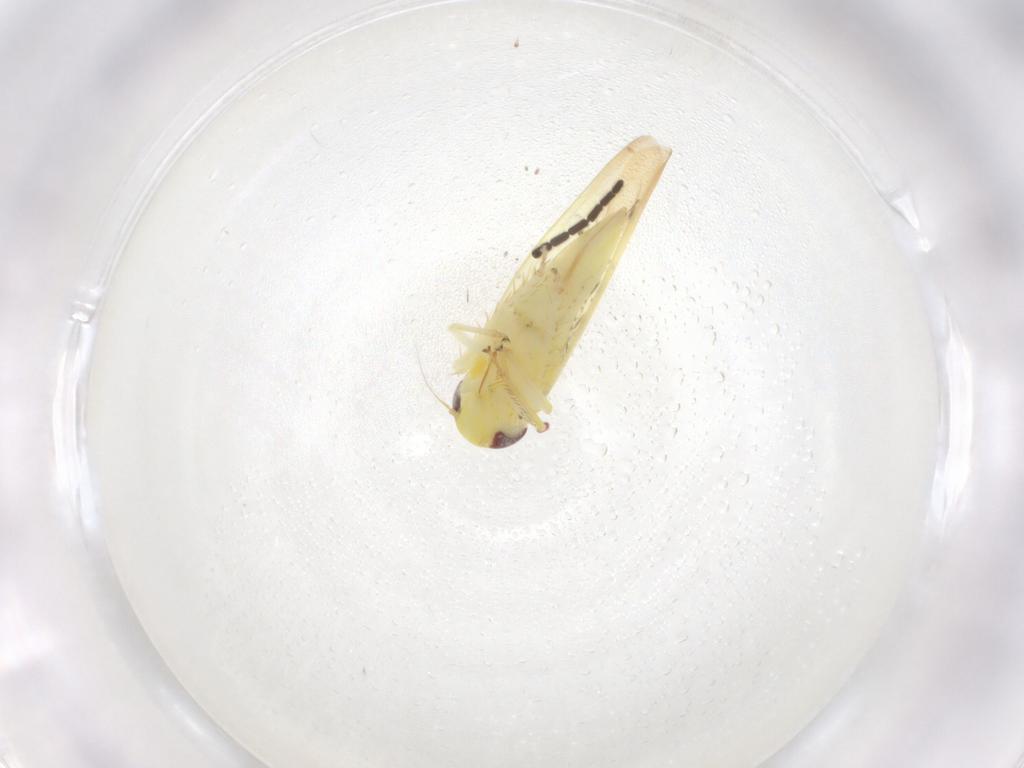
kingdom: Animalia
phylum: Arthropoda
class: Insecta
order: Hemiptera
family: Cicadellidae
